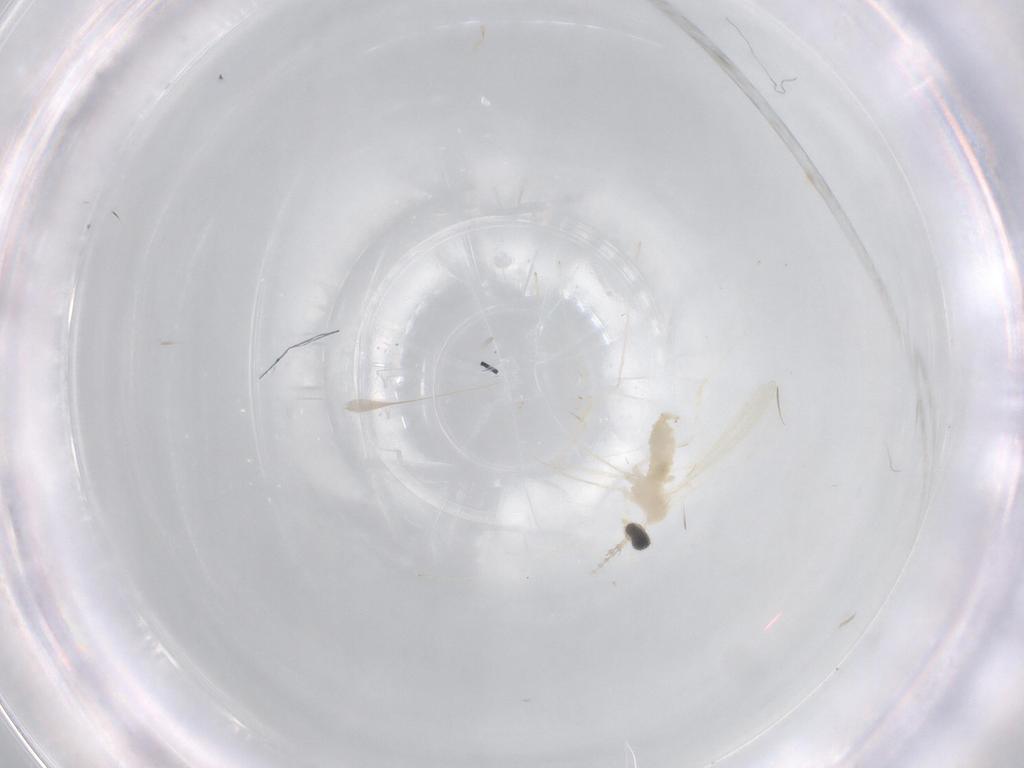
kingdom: Animalia
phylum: Arthropoda
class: Insecta
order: Diptera
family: Cecidomyiidae
